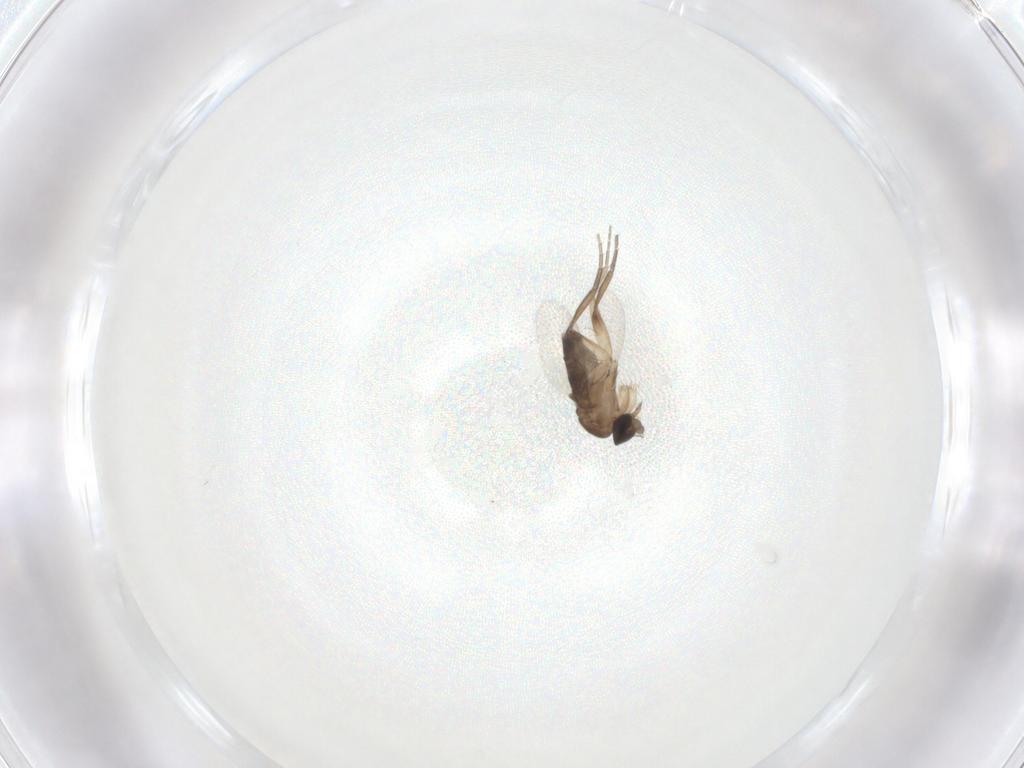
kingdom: Animalia
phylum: Arthropoda
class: Insecta
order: Diptera
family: Phoridae
